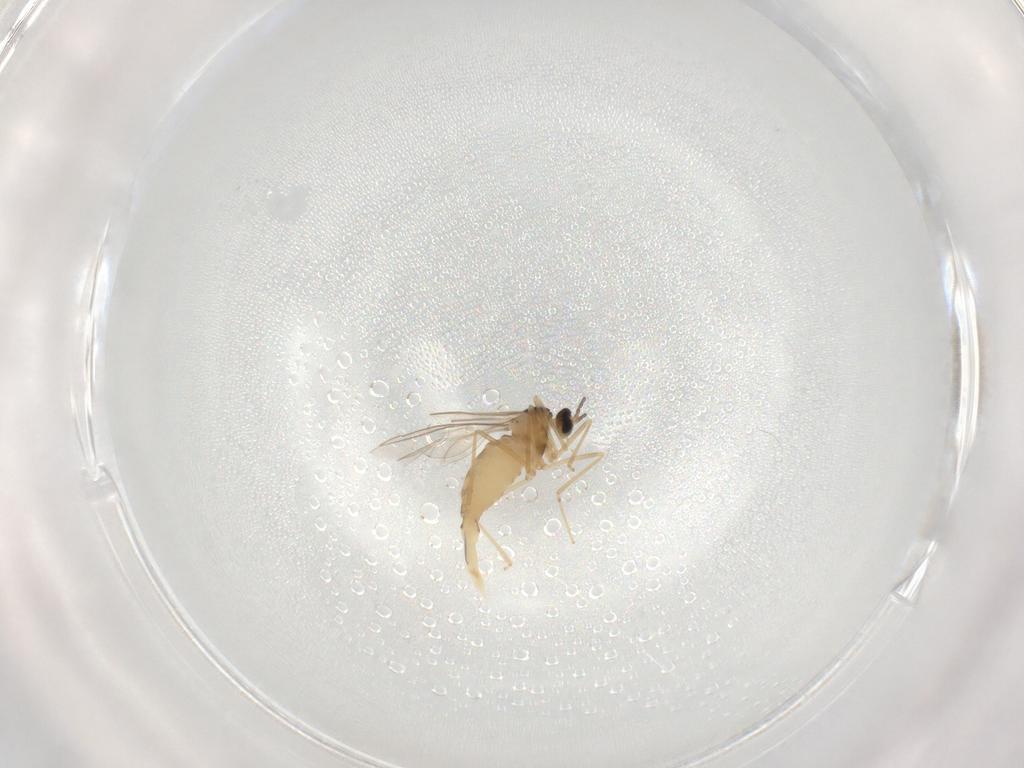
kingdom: Animalia
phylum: Arthropoda
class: Insecta
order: Diptera
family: Cecidomyiidae
